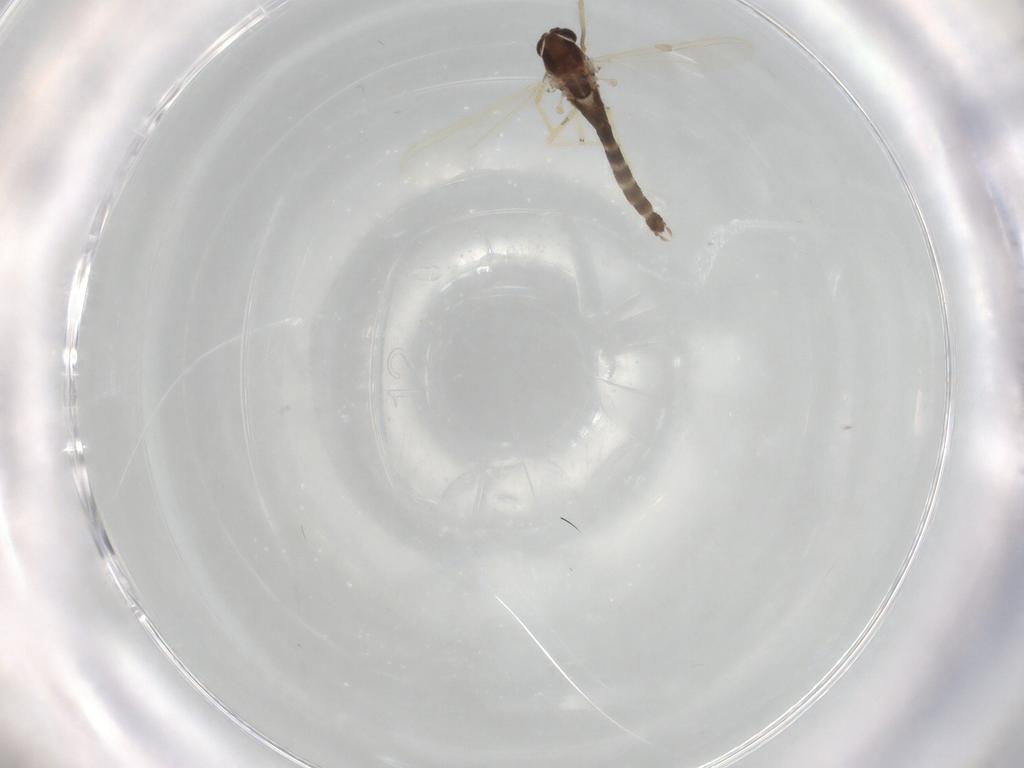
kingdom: Animalia
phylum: Arthropoda
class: Insecta
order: Diptera
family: Chironomidae
